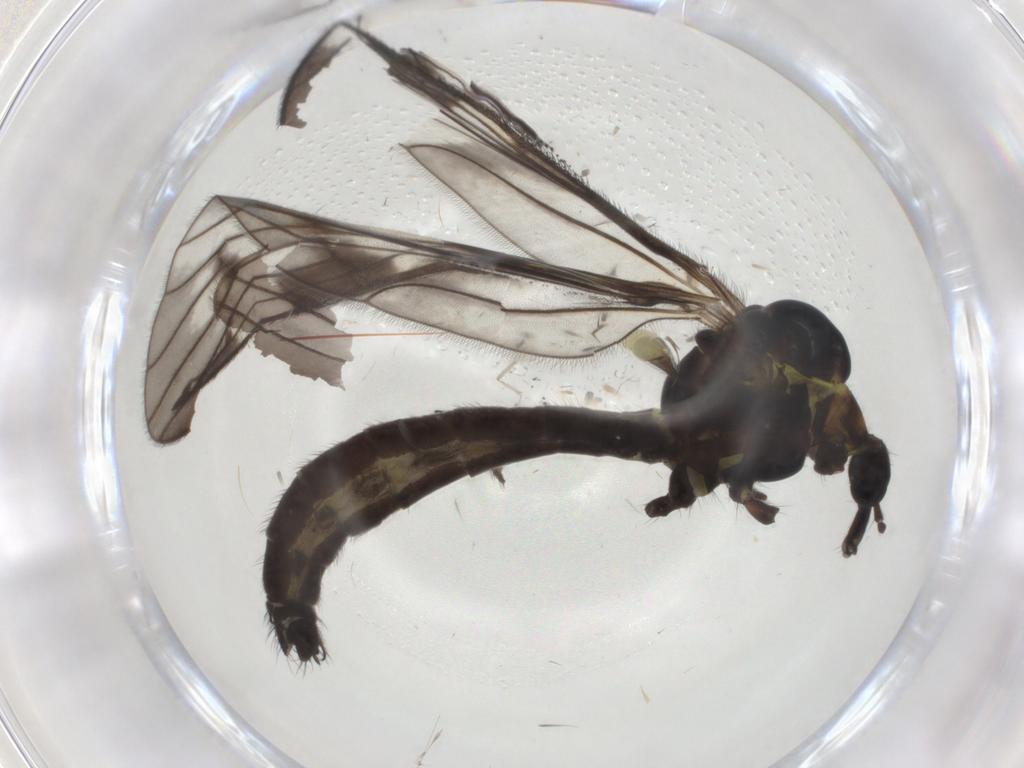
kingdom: Animalia
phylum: Arthropoda
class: Insecta
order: Diptera
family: Limoniidae
